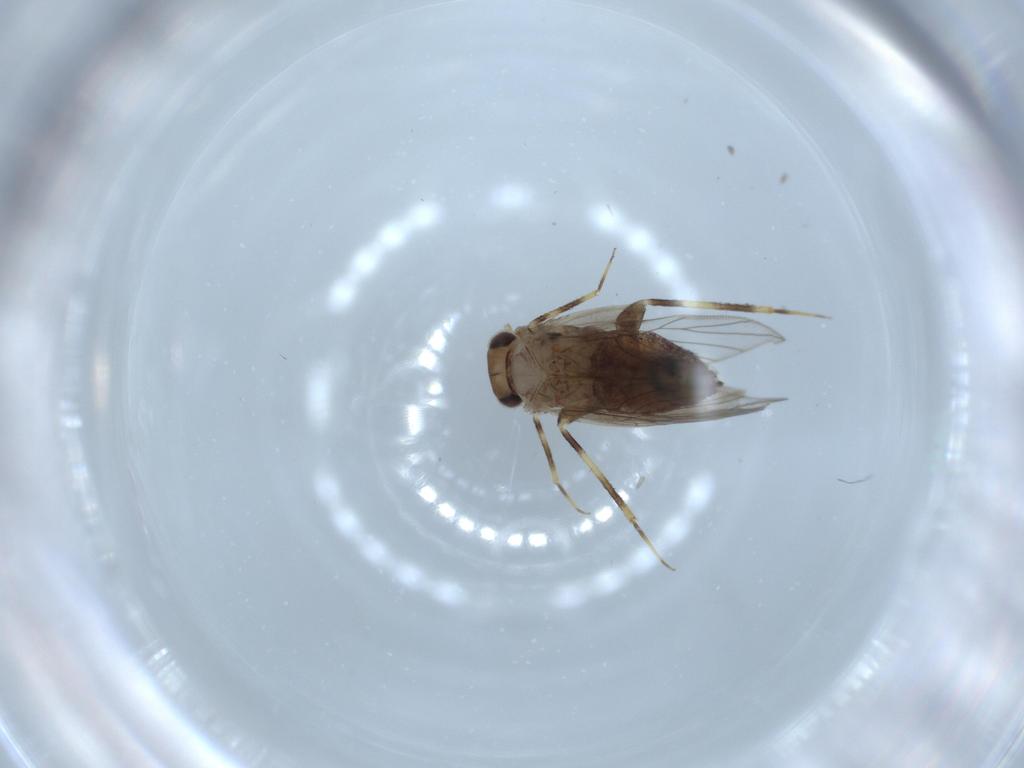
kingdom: Animalia
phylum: Arthropoda
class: Insecta
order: Psocodea
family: Lepidopsocidae
